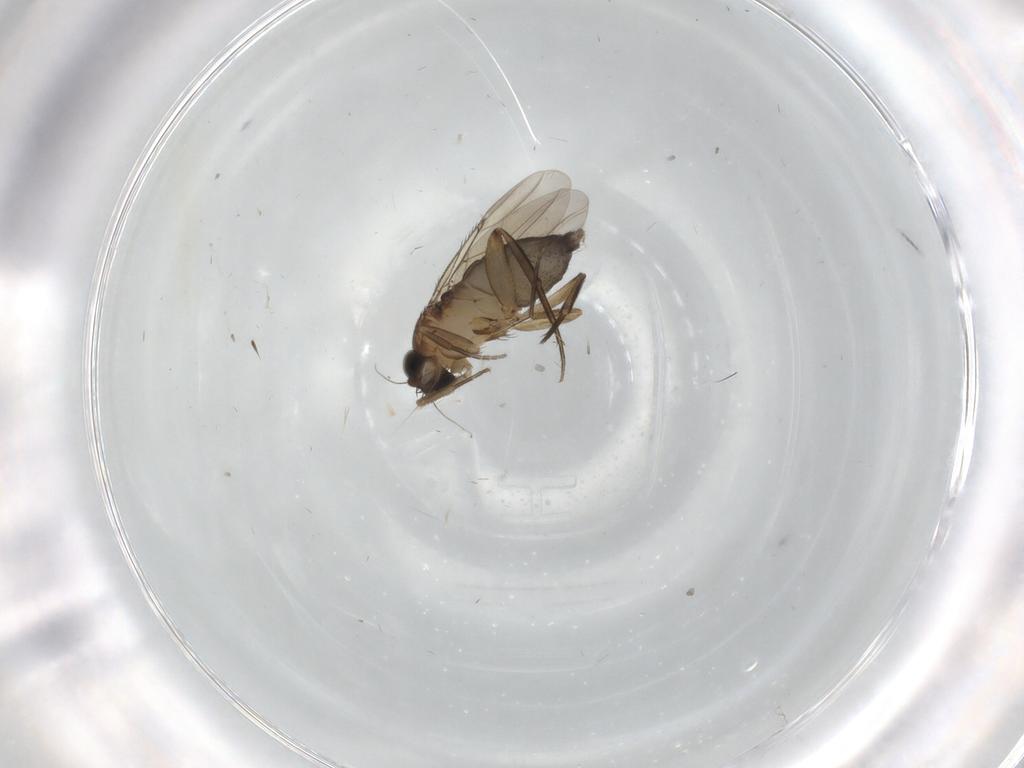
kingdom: Animalia
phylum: Arthropoda
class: Insecta
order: Diptera
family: Phoridae
